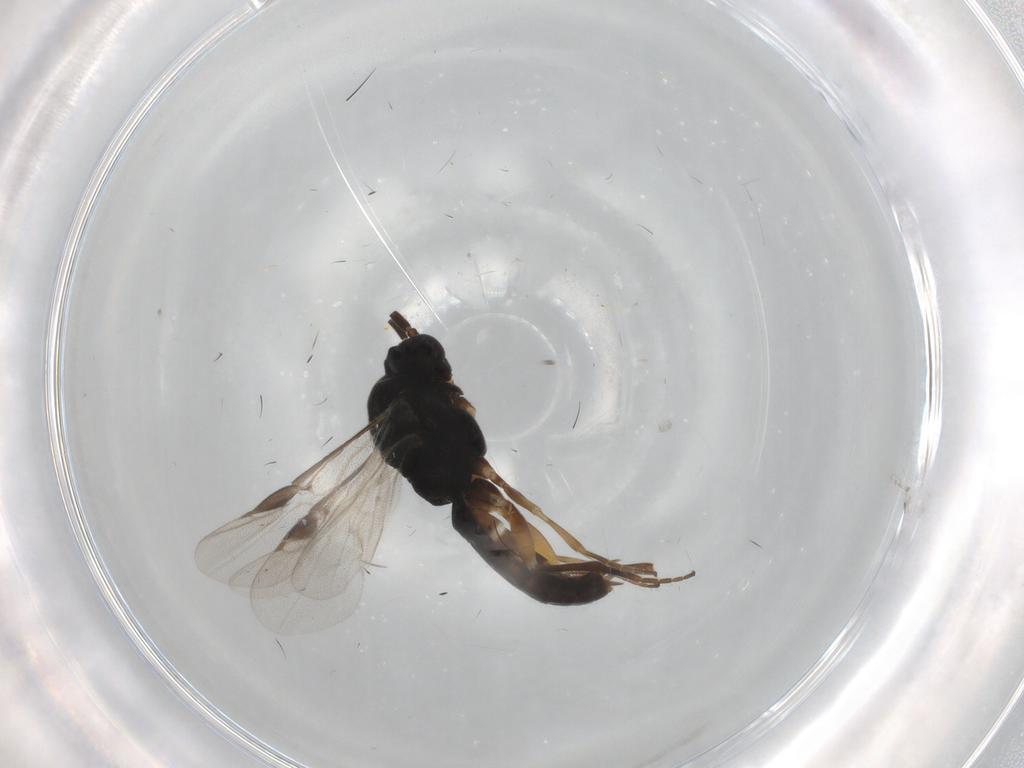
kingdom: Animalia
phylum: Arthropoda
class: Insecta
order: Hymenoptera
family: Braconidae
